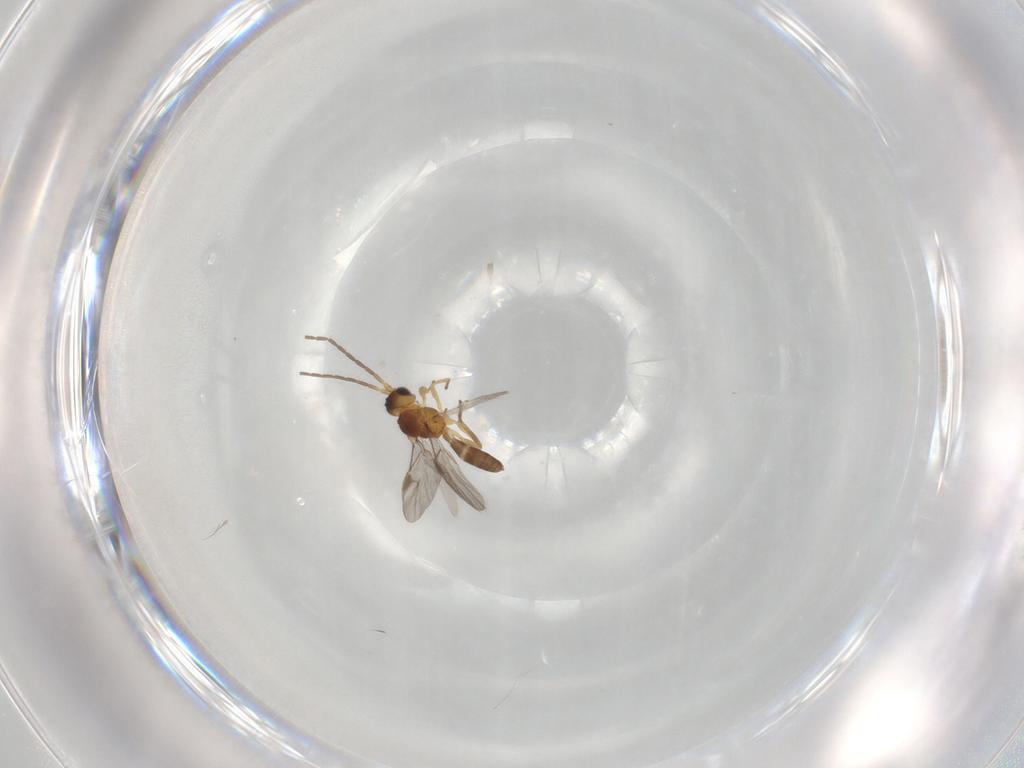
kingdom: Animalia
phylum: Arthropoda
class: Insecta
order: Hymenoptera
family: Braconidae
